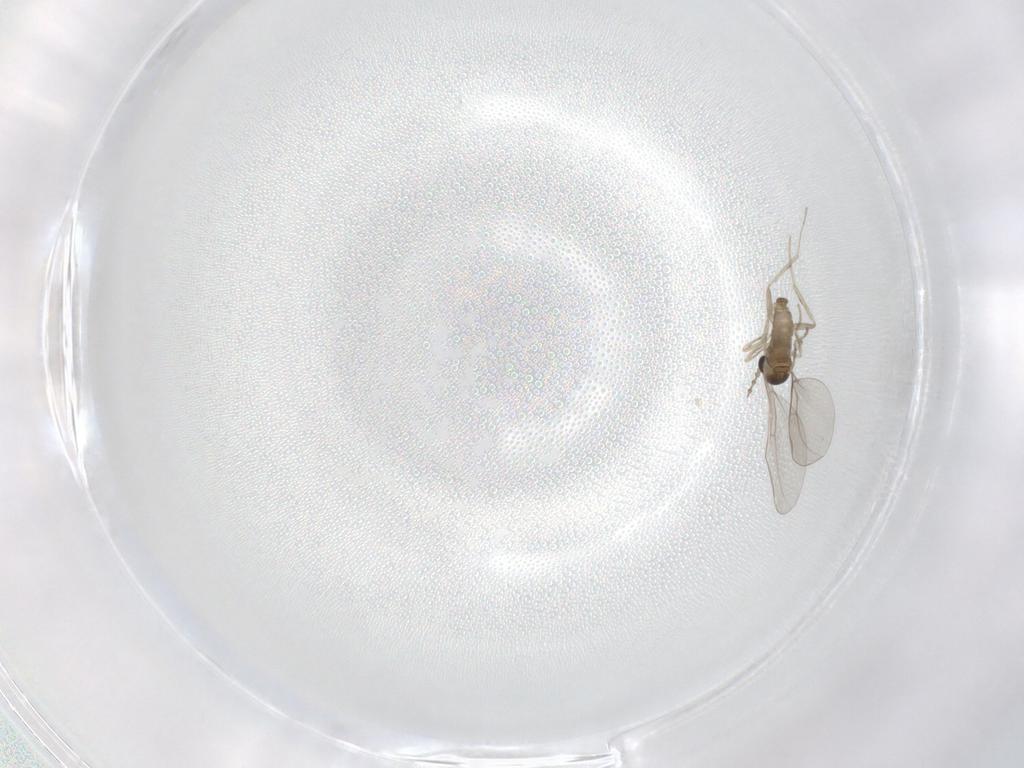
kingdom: Animalia
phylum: Arthropoda
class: Insecta
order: Diptera
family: Cecidomyiidae
